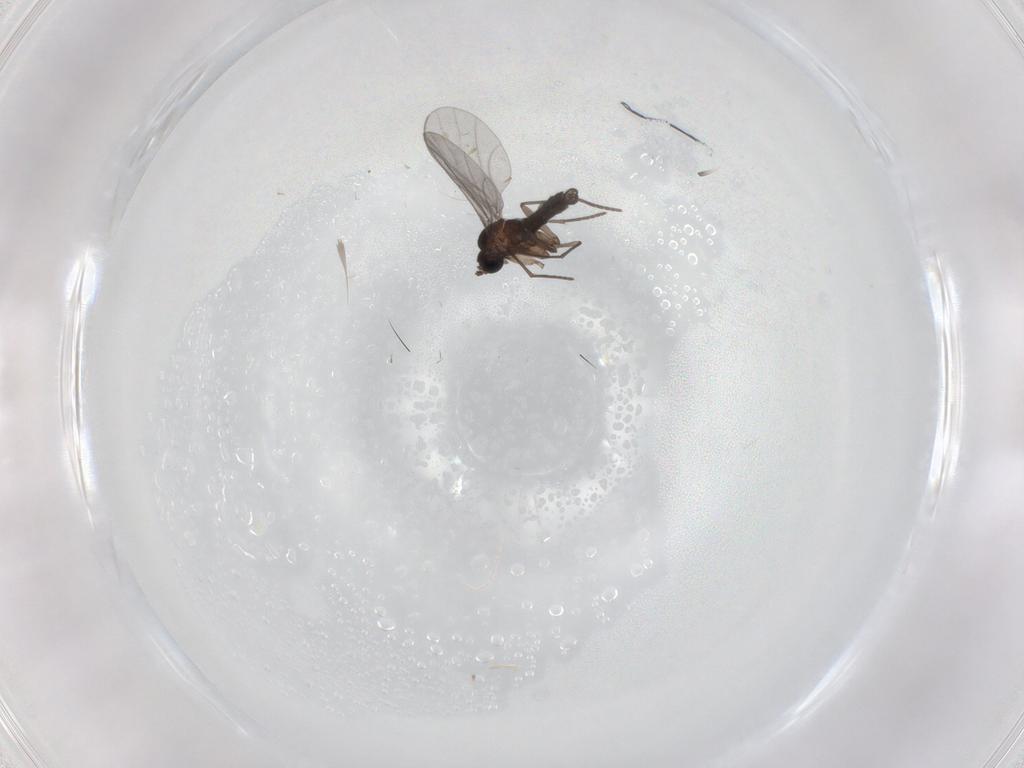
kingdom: Animalia
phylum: Arthropoda
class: Insecta
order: Diptera
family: Sciaridae
